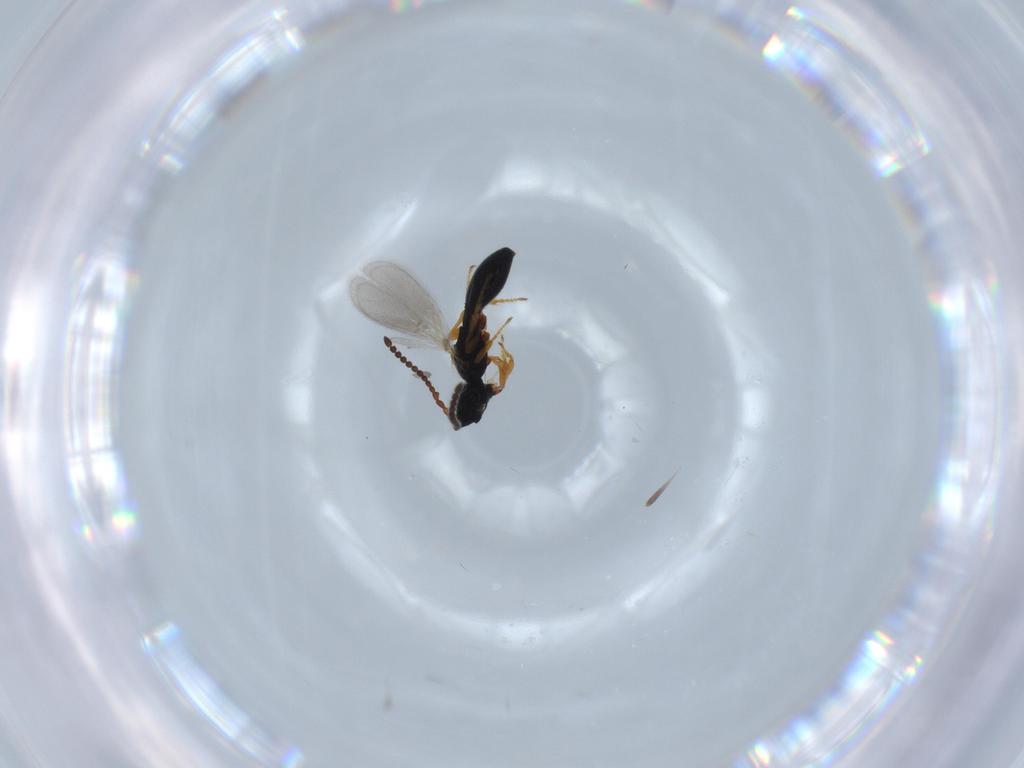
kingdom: Animalia
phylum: Arthropoda
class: Insecta
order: Hymenoptera
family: Diapriidae
